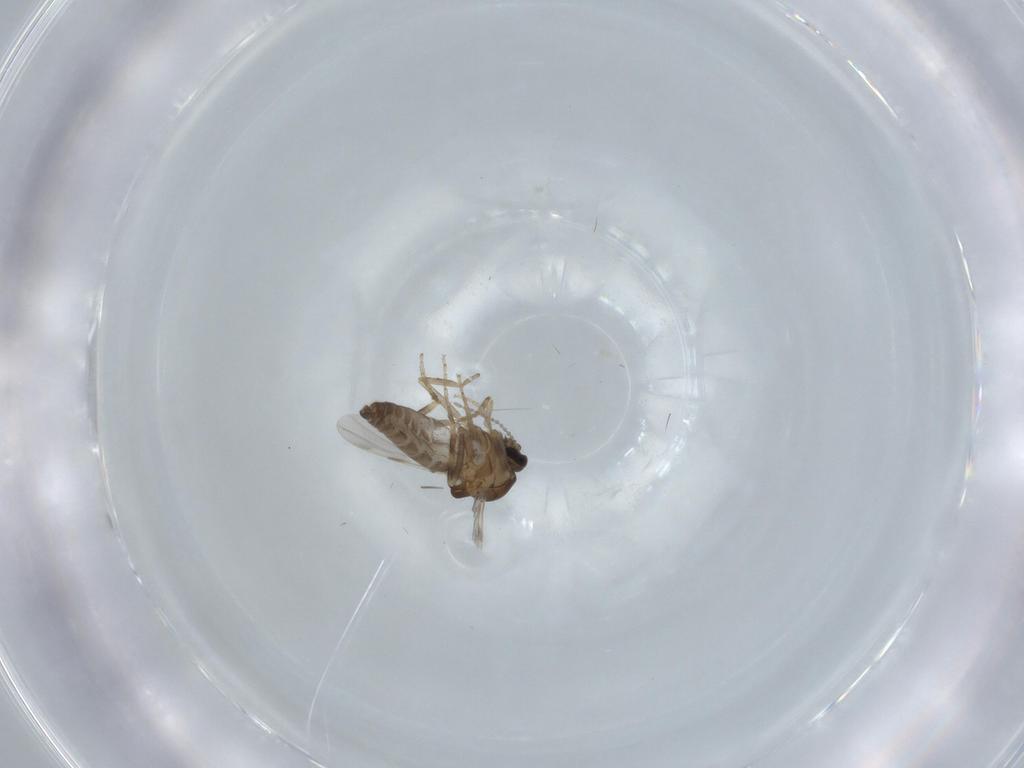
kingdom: Animalia
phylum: Arthropoda
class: Insecta
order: Diptera
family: Ceratopogonidae
